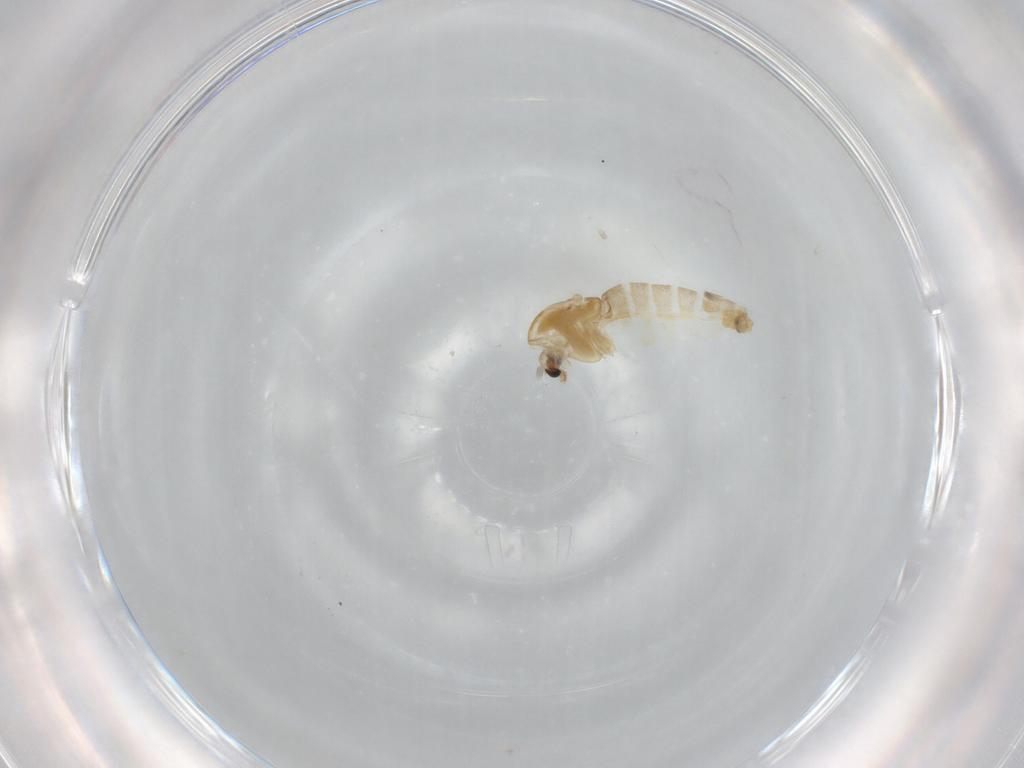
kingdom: Animalia
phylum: Arthropoda
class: Insecta
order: Diptera
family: Chironomidae
